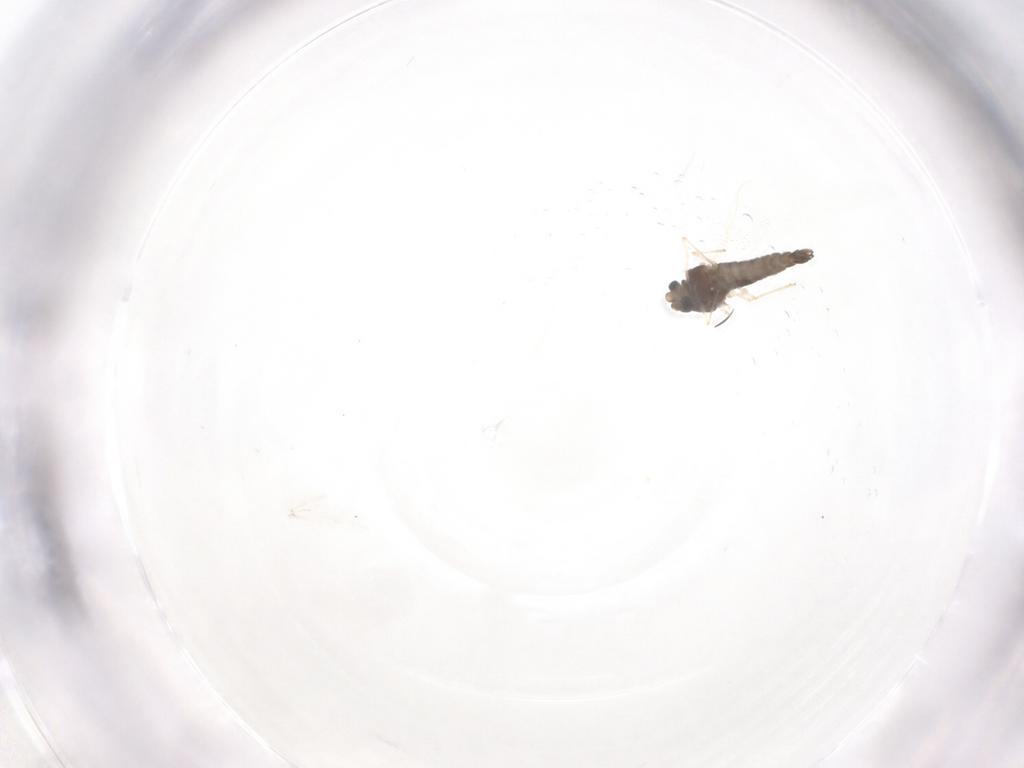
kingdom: Animalia
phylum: Arthropoda
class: Insecta
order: Diptera
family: Chironomidae
